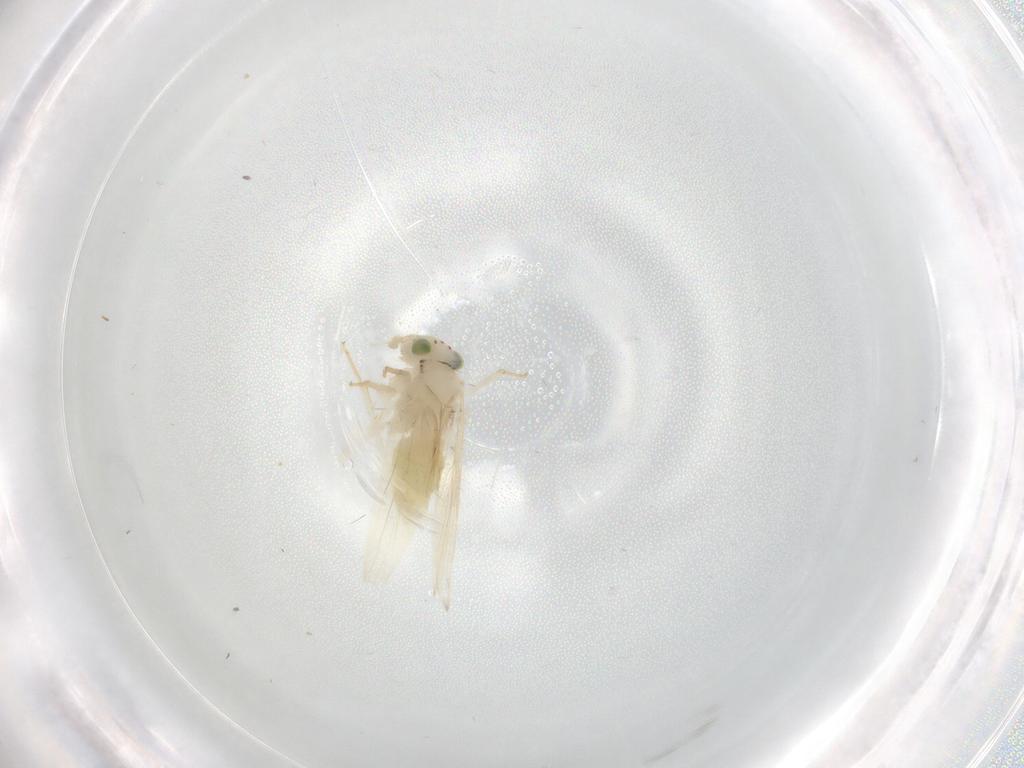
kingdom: Animalia
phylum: Arthropoda
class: Insecta
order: Psocodea
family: Lepidopsocidae
